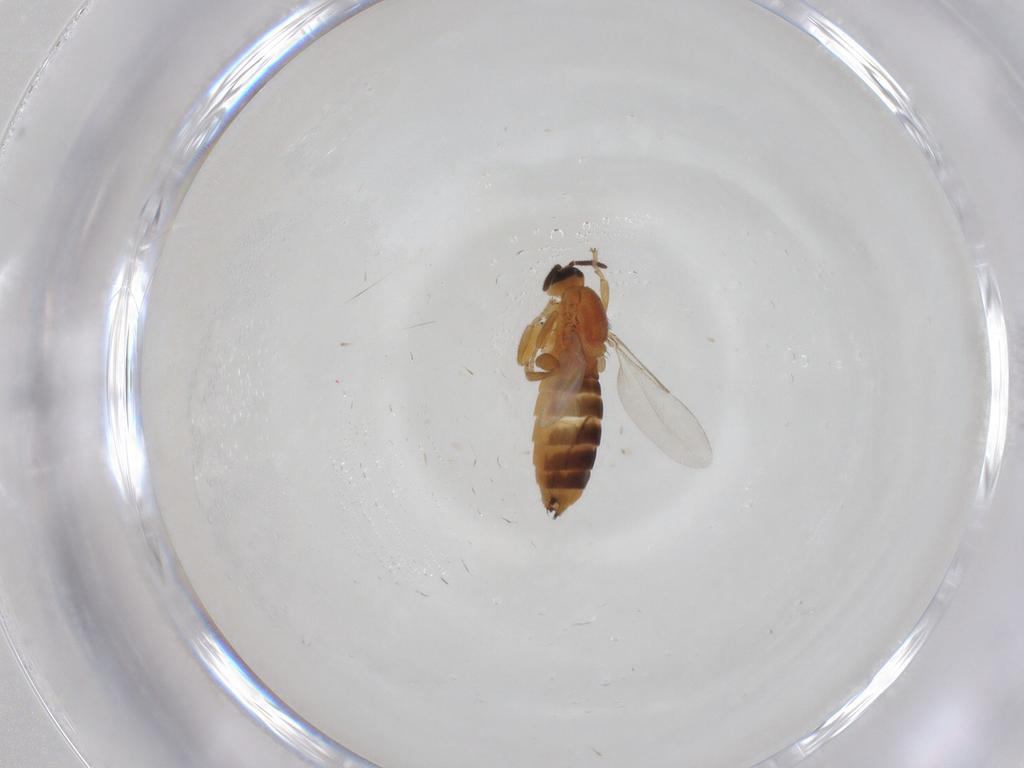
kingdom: Animalia
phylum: Arthropoda
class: Insecta
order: Diptera
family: Scatopsidae
